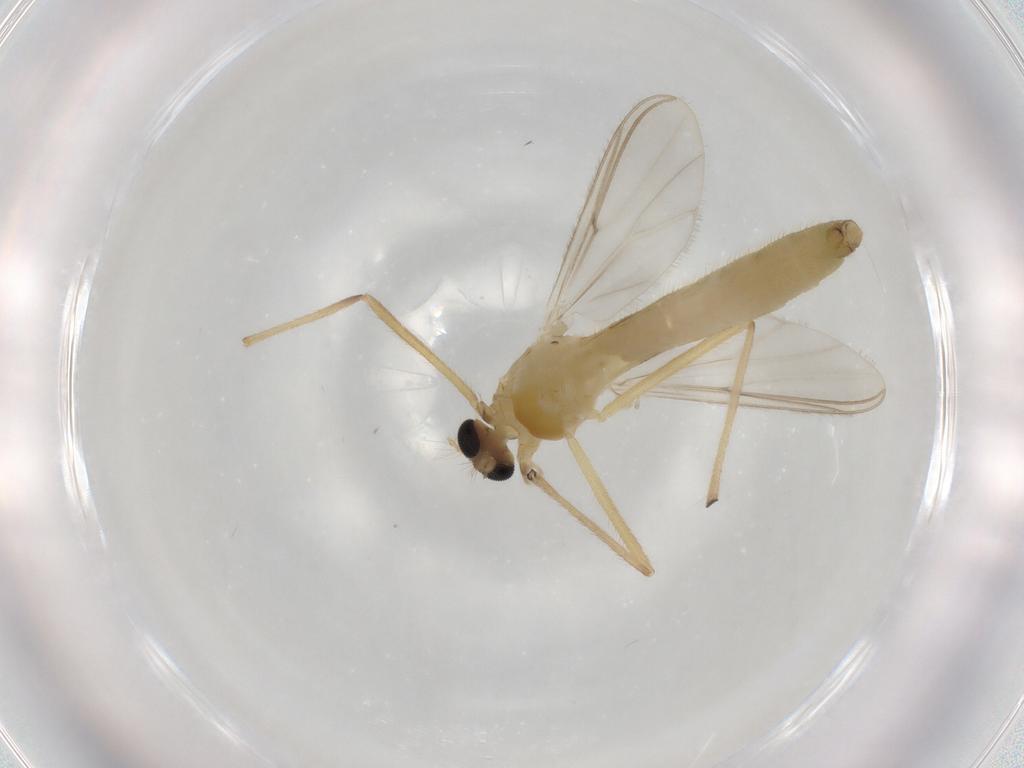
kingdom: Animalia
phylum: Arthropoda
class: Insecta
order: Diptera
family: Chironomidae
